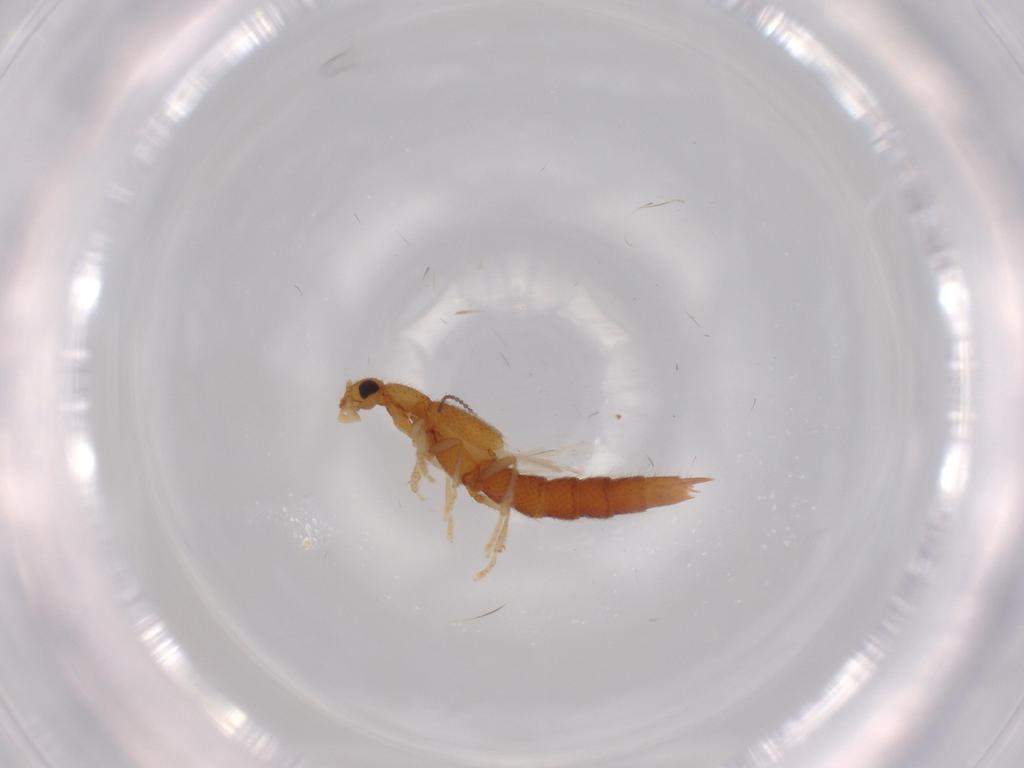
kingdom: Animalia
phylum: Arthropoda
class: Insecta
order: Coleoptera
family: Staphylinidae
